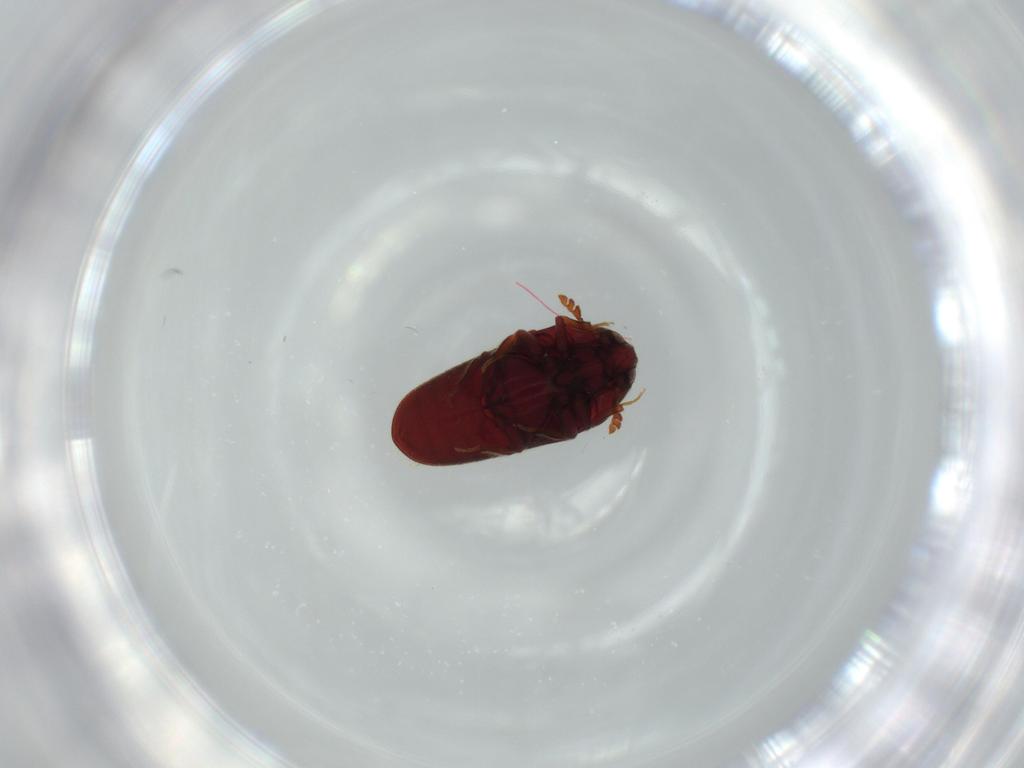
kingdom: Animalia
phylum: Arthropoda
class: Insecta
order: Coleoptera
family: Throscidae
